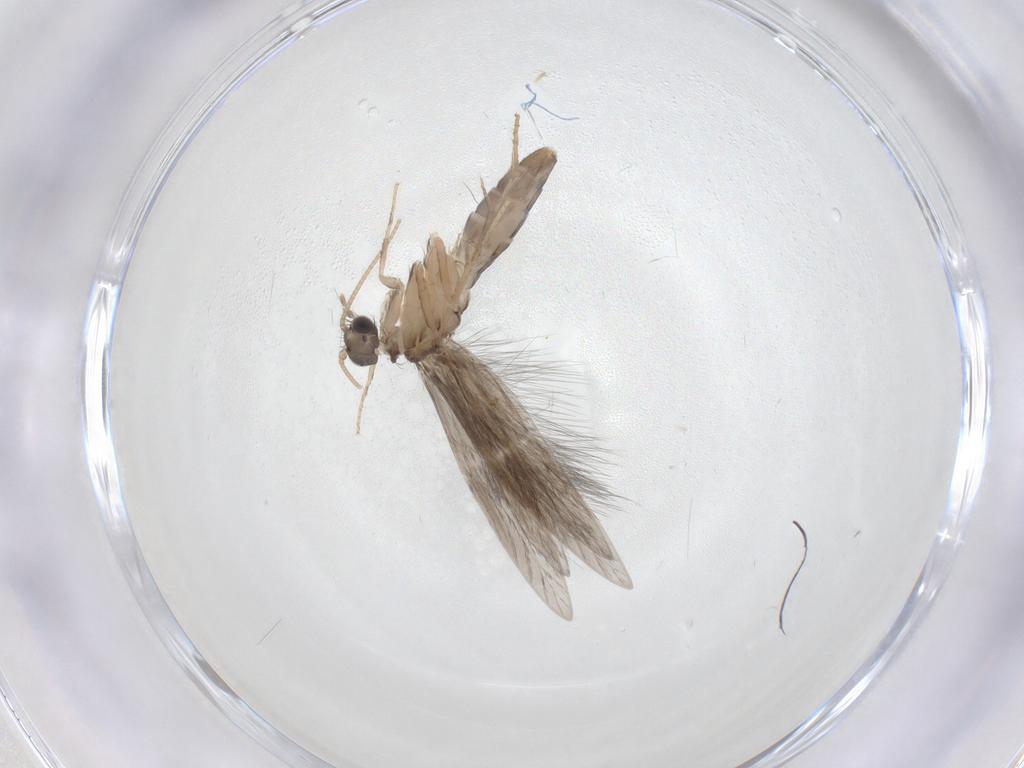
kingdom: Animalia
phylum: Arthropoda
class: Insecta
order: Trichoptera
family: Hydroptilidae
